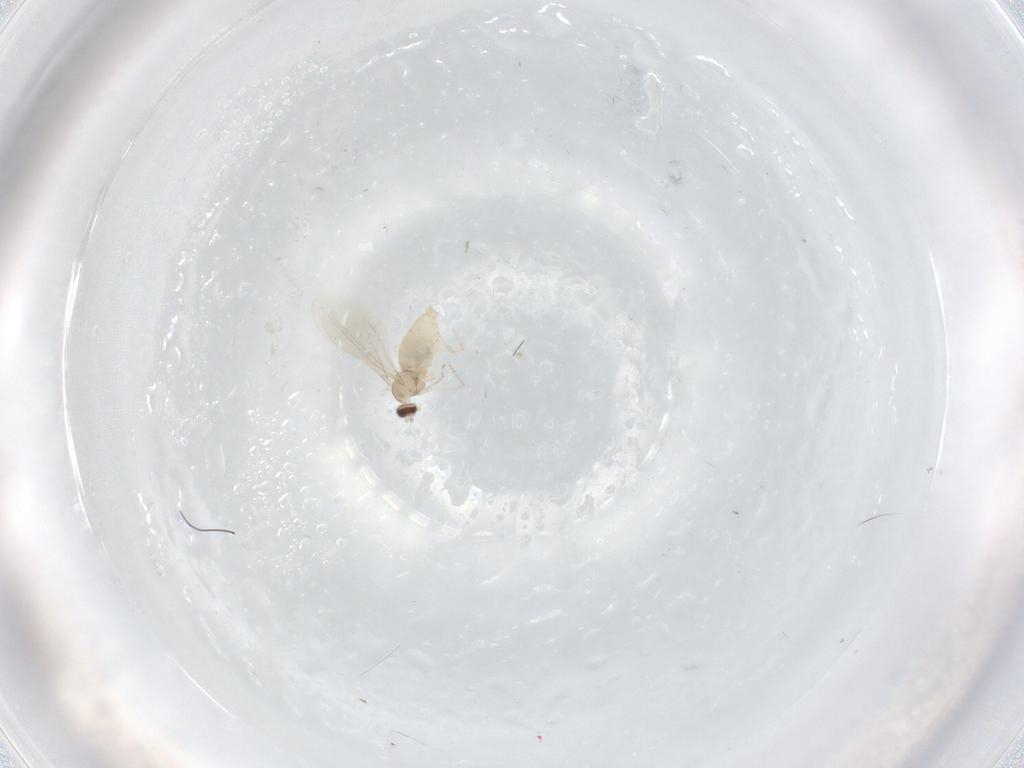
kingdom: Animalia
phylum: Arthropoda
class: Insecta
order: Diptera
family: Cecidomyiidae
